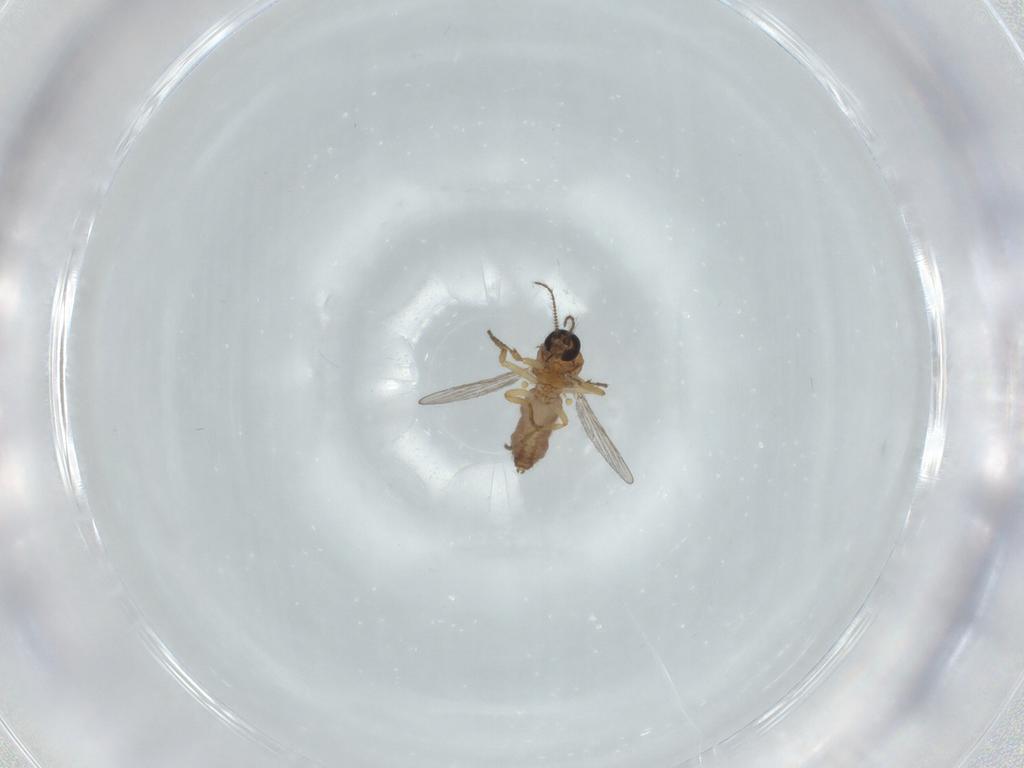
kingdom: Animalia
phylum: Arthropoda
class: Insecta
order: Diptera
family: Ceratopogonidae
